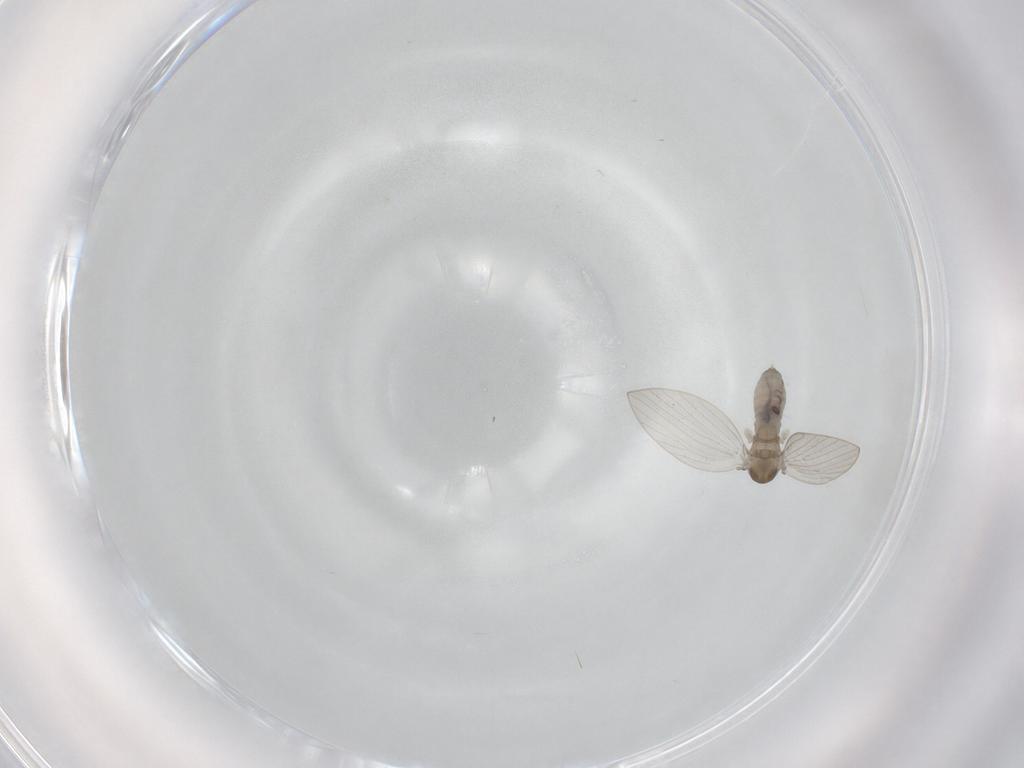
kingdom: Animalia
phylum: Arthropoda
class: Insecta
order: Diptera
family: Psychodidae
